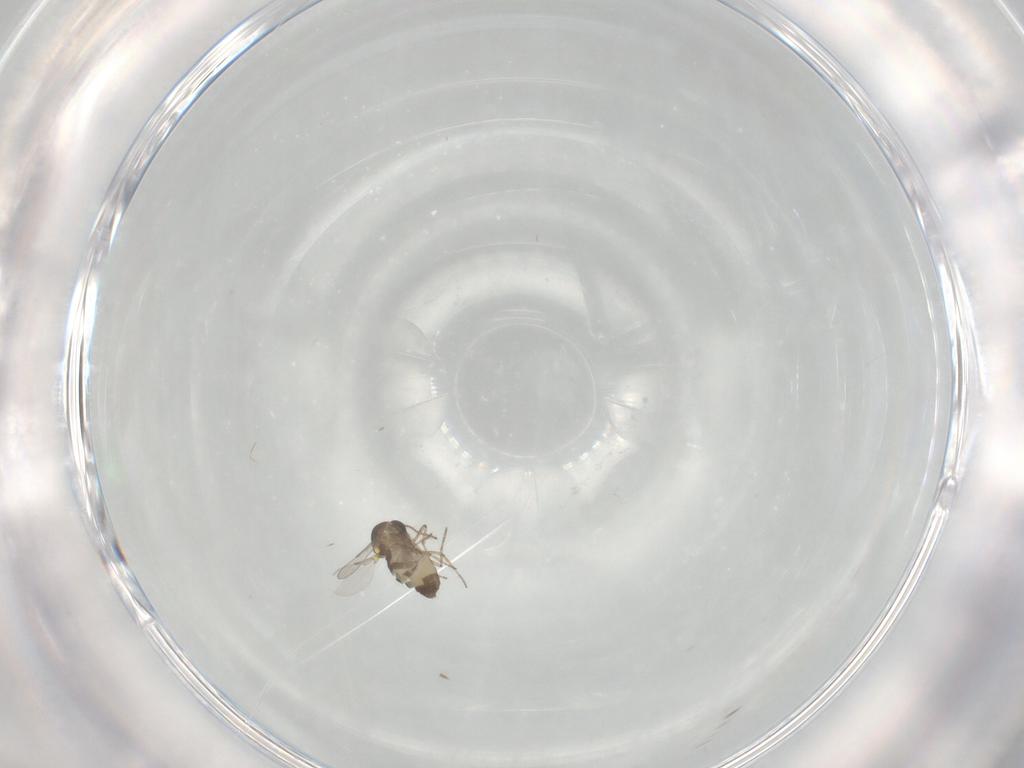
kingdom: Animalia
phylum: Arthropoda
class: Insecta
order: Diptera
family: Ceratopogonidae
